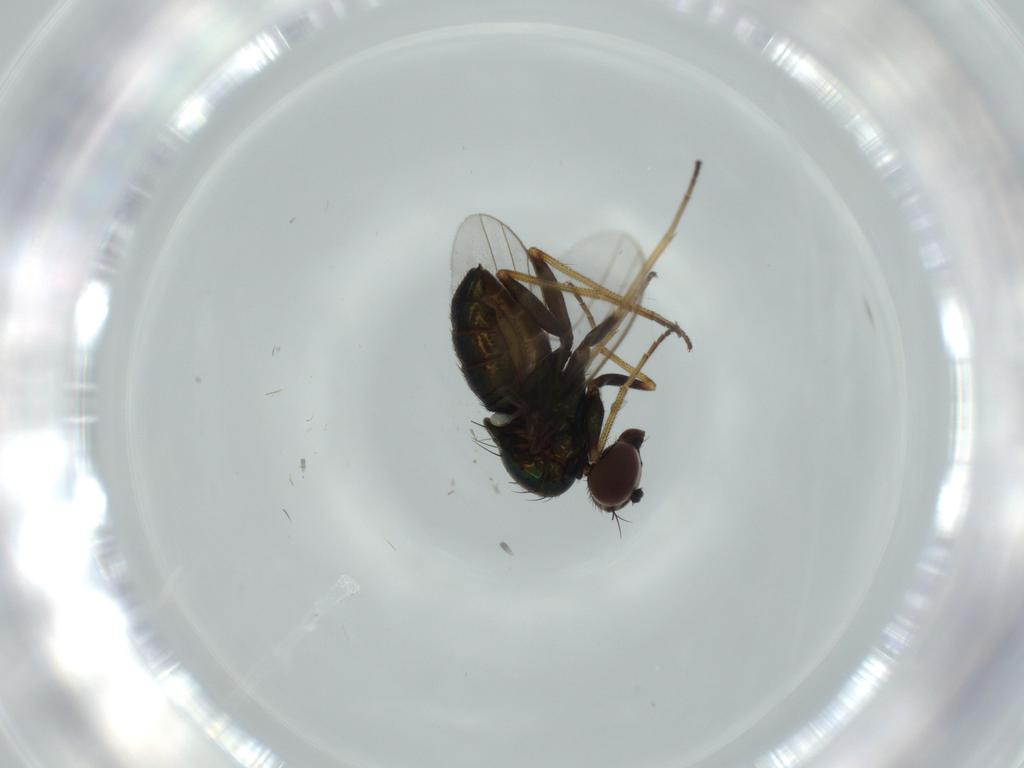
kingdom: Animalia
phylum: Arthropoda
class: Insecta
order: Diptera
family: Dolichopodidae
